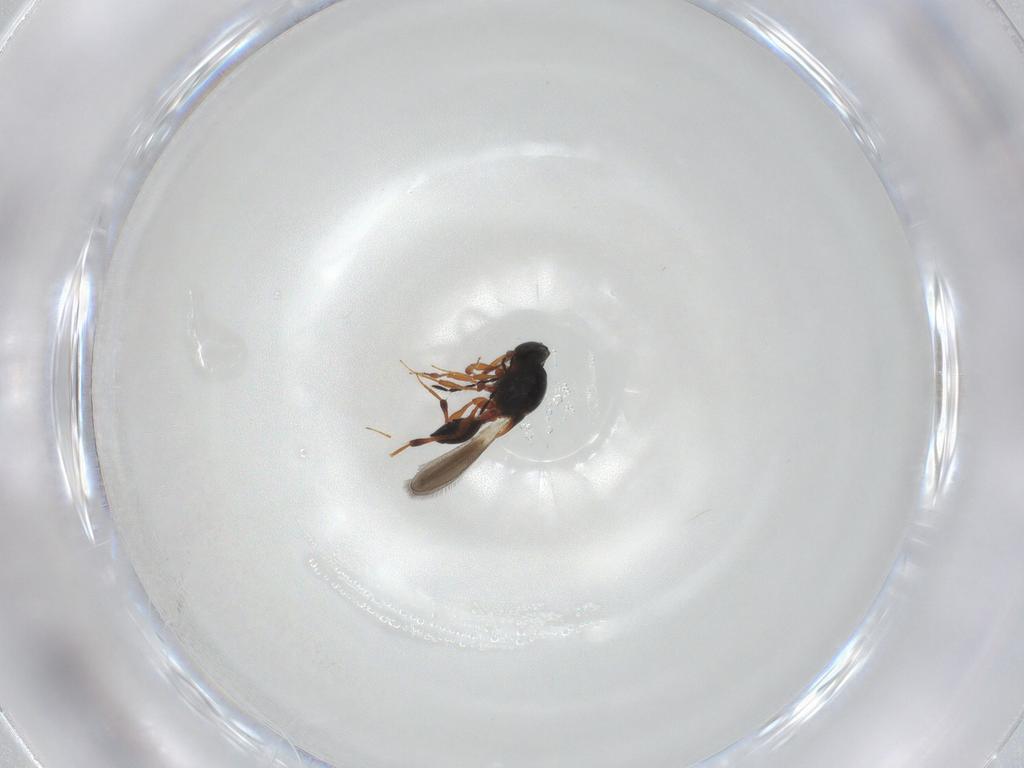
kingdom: Animalia
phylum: Arthropoda
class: Insecta
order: Hymenoptera
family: Platygastridae
